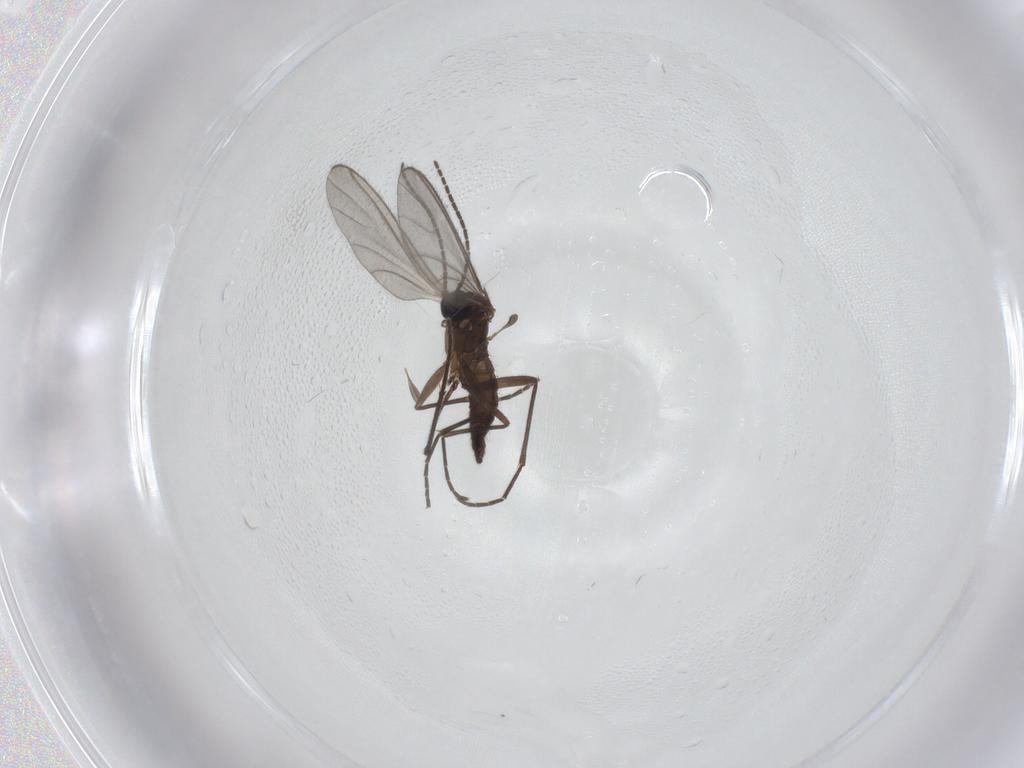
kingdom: Animalia
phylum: Arthropoda
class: Insecta
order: Diptera
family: Sciaridae
